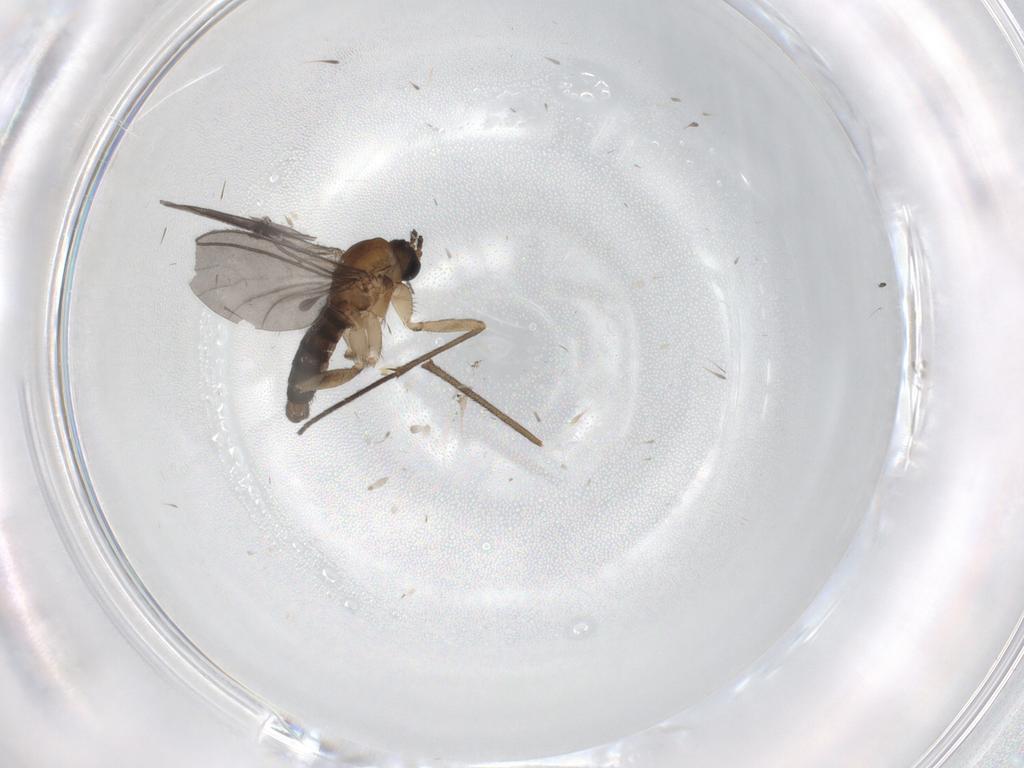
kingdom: Animalia
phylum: Arthropoda
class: Insecta
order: Diptera
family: Sciaridae
